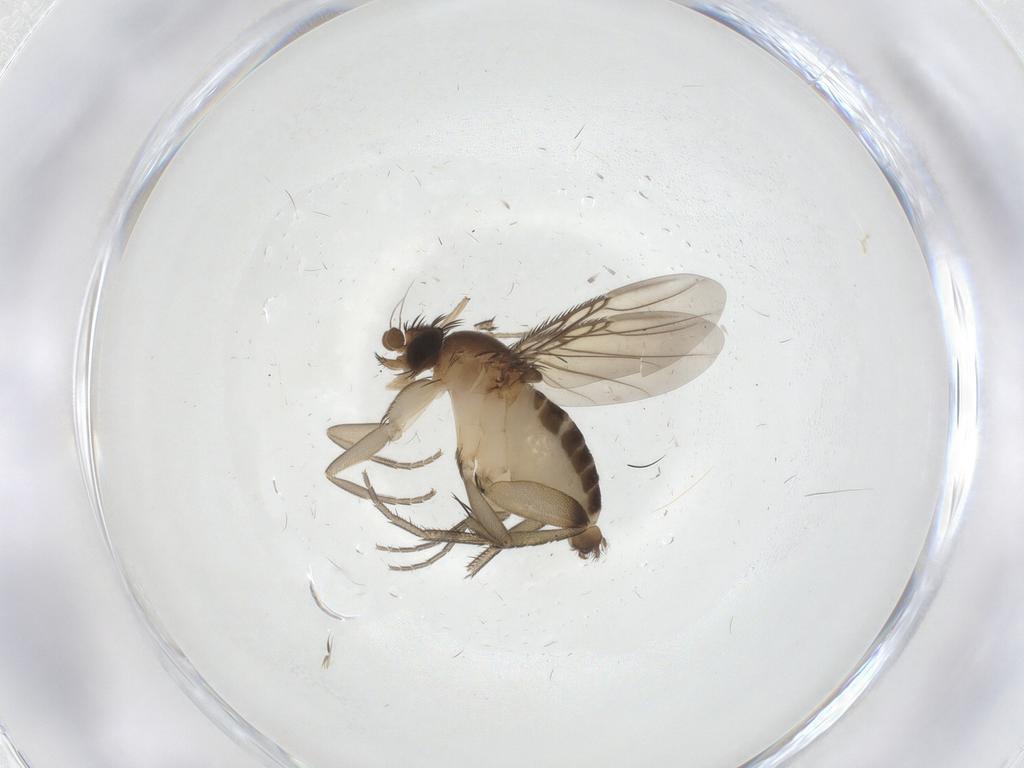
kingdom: Animalia
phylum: Arthropoda
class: Insecta
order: Diptera
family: Phoridae
